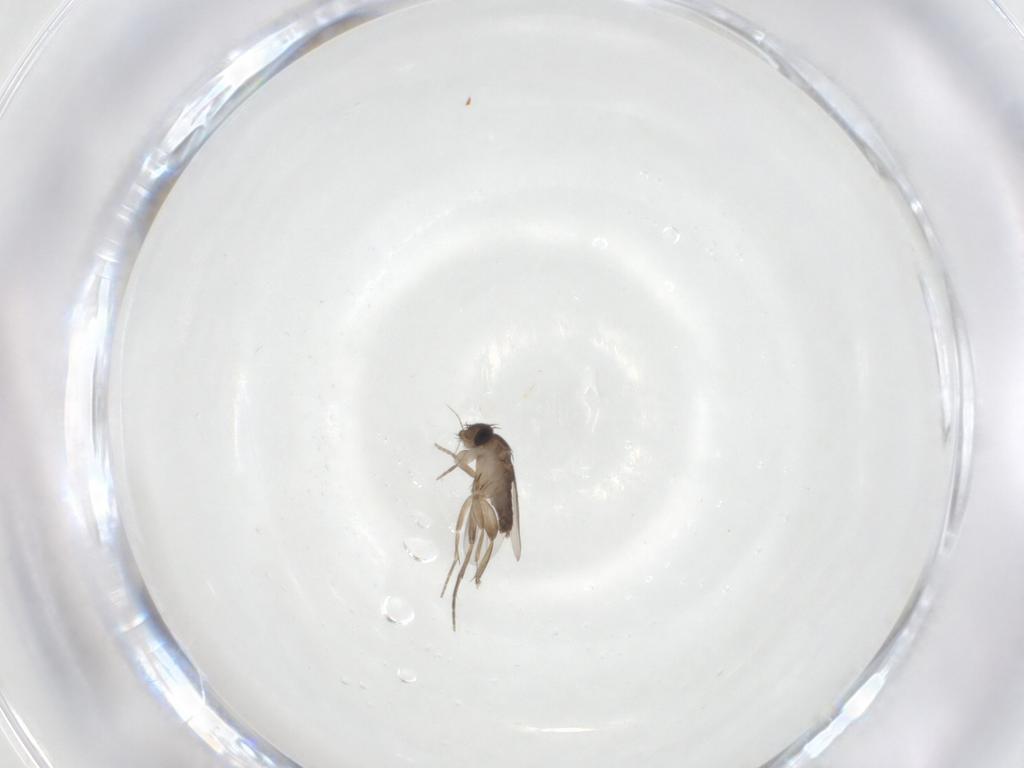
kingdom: Animalia
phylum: Arthropoda
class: Insecta
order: Diptera
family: Phoridae
